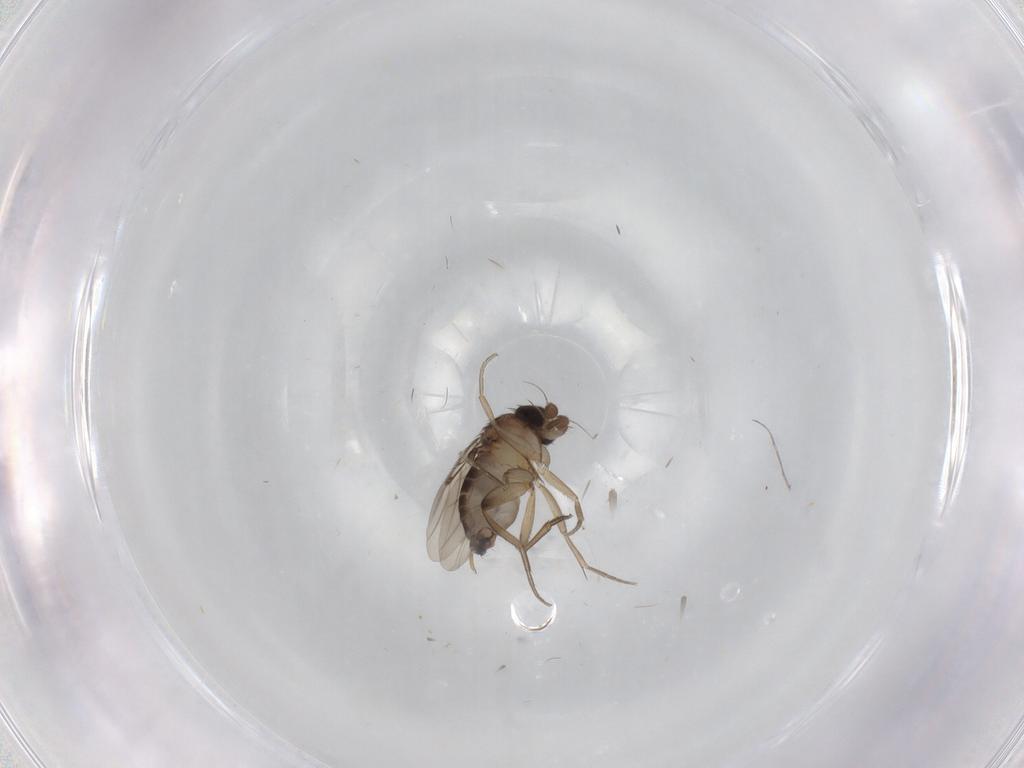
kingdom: Animalia
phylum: Arthropoda
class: Insecta
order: Diptera
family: Sphaeroceridae
